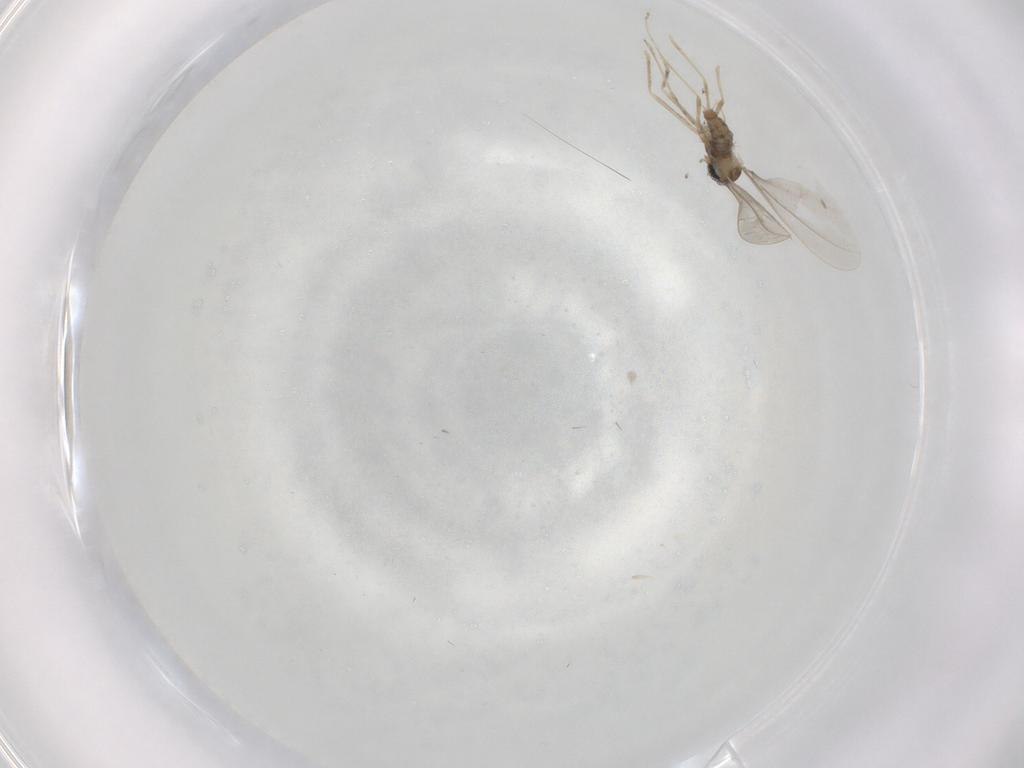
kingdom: Animalia
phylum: Arthropoda
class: Insecta
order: Diptera
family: Cecidomyiidae
